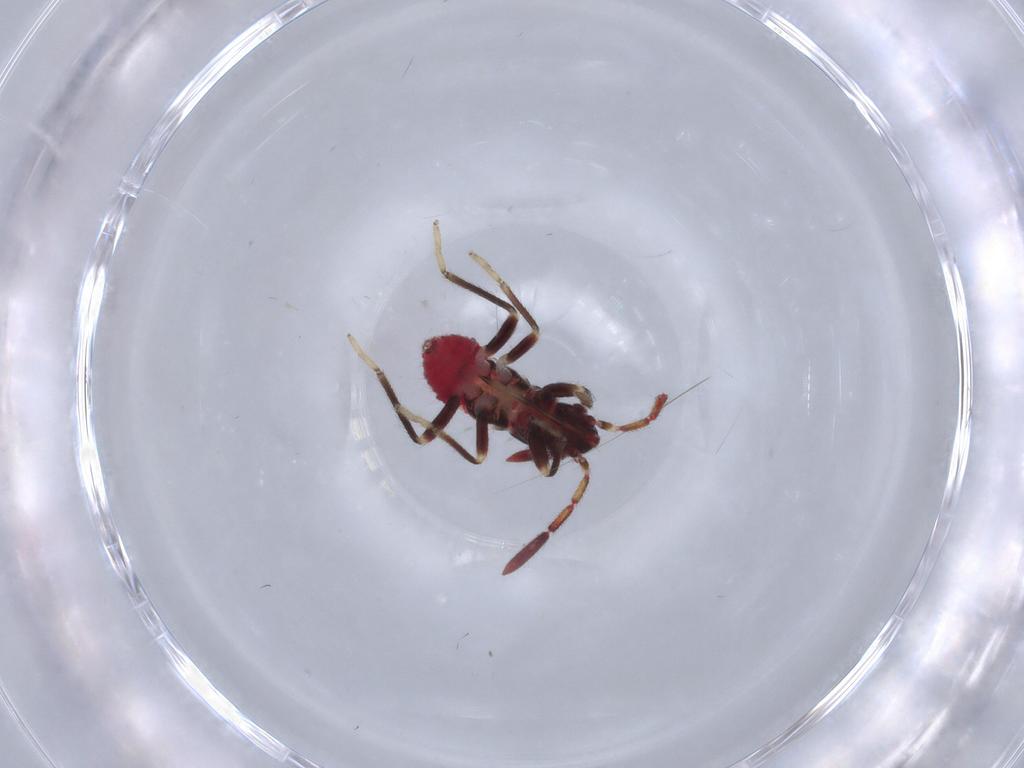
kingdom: Animalia
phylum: Arthropoda
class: Insecta
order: Hemiptera
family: Rhyparochromidae
